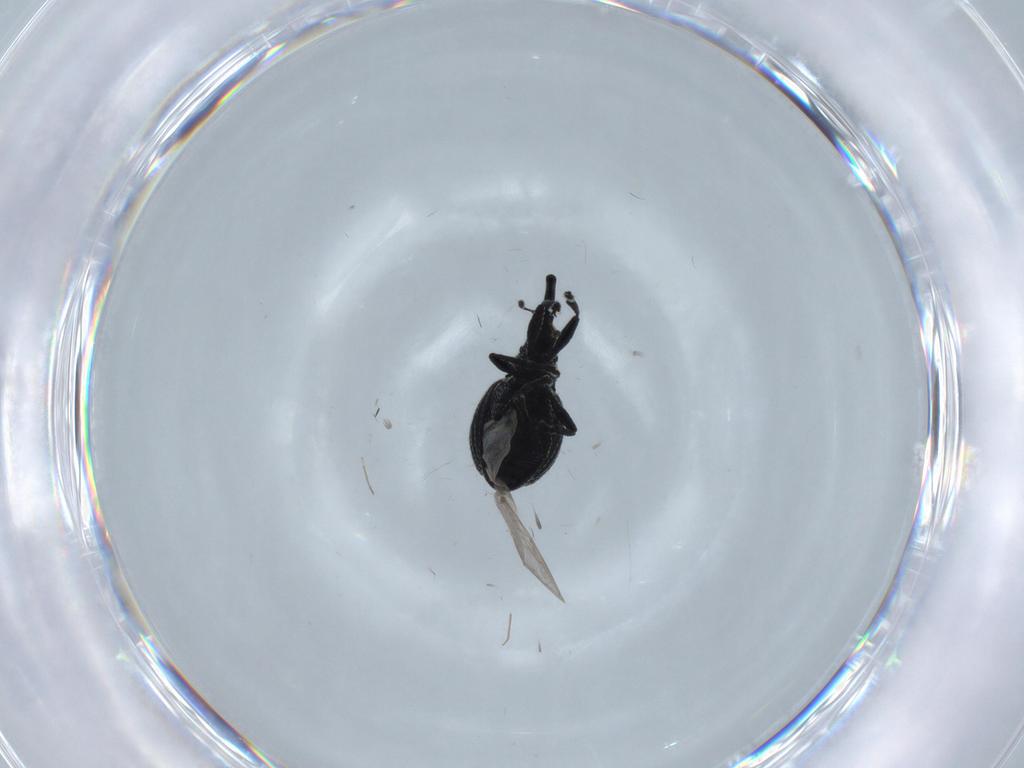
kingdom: Animalia
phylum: Arthropoda
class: Insecta
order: Coleoptera
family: Brentidae
